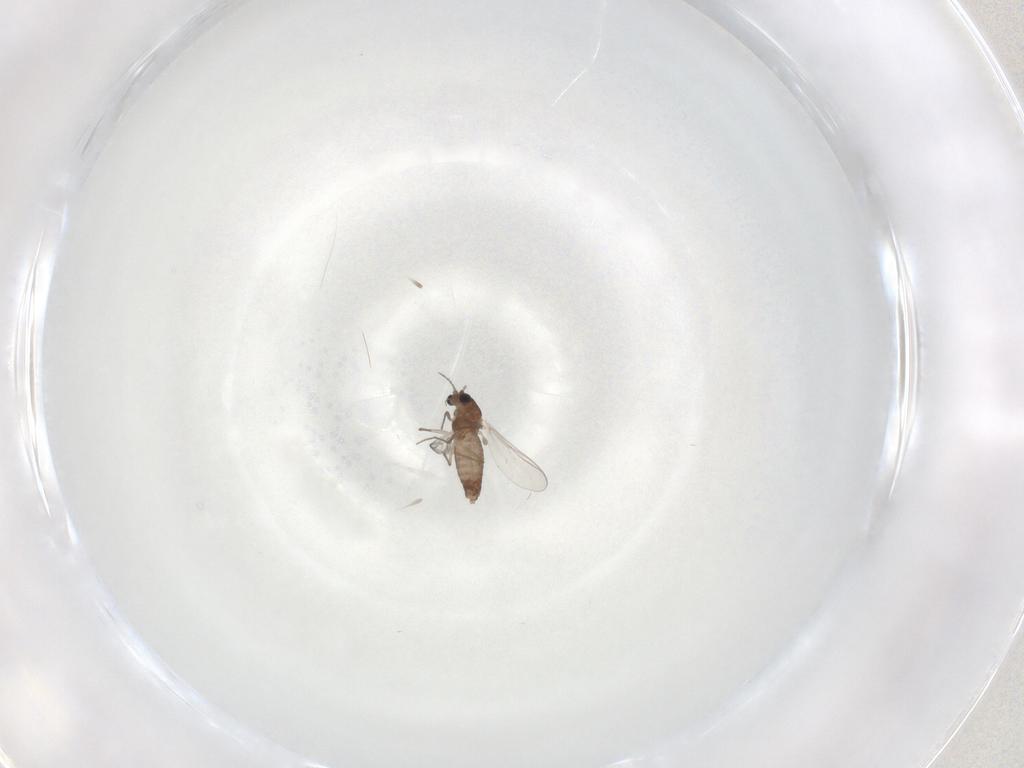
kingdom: Animalia
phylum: Arthropoda
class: Insecta
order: Diptera
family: Chironomidae
